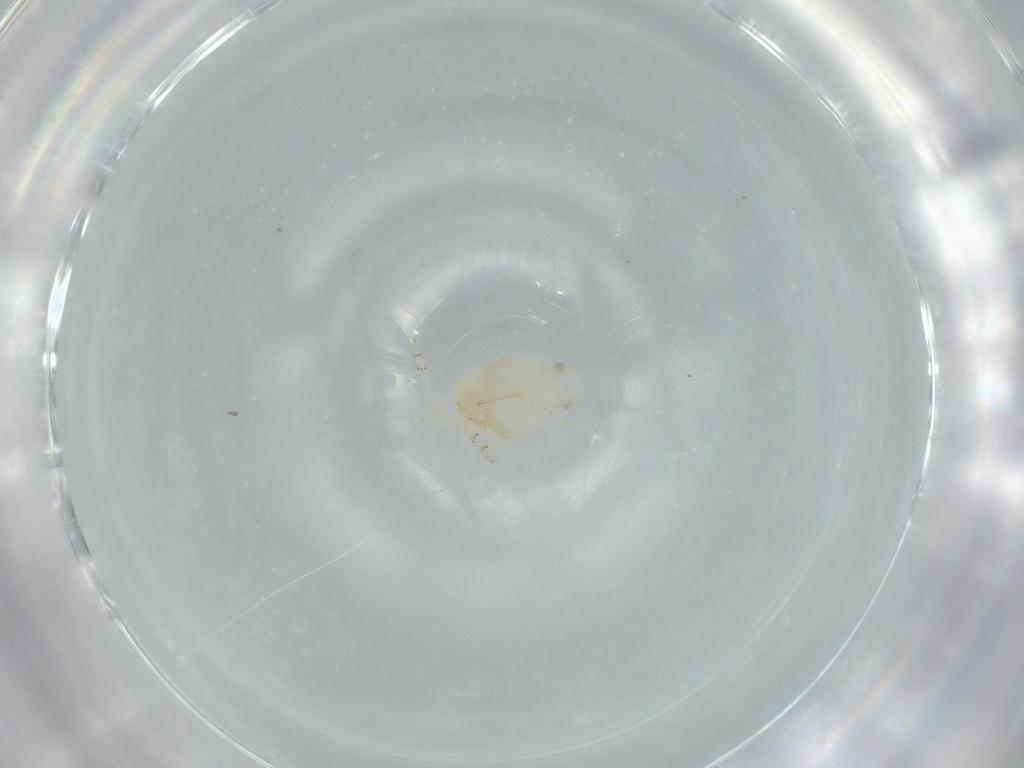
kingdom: Animalia
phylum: Arthropoda
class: Insecta
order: Hemiptera
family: Flatidae
